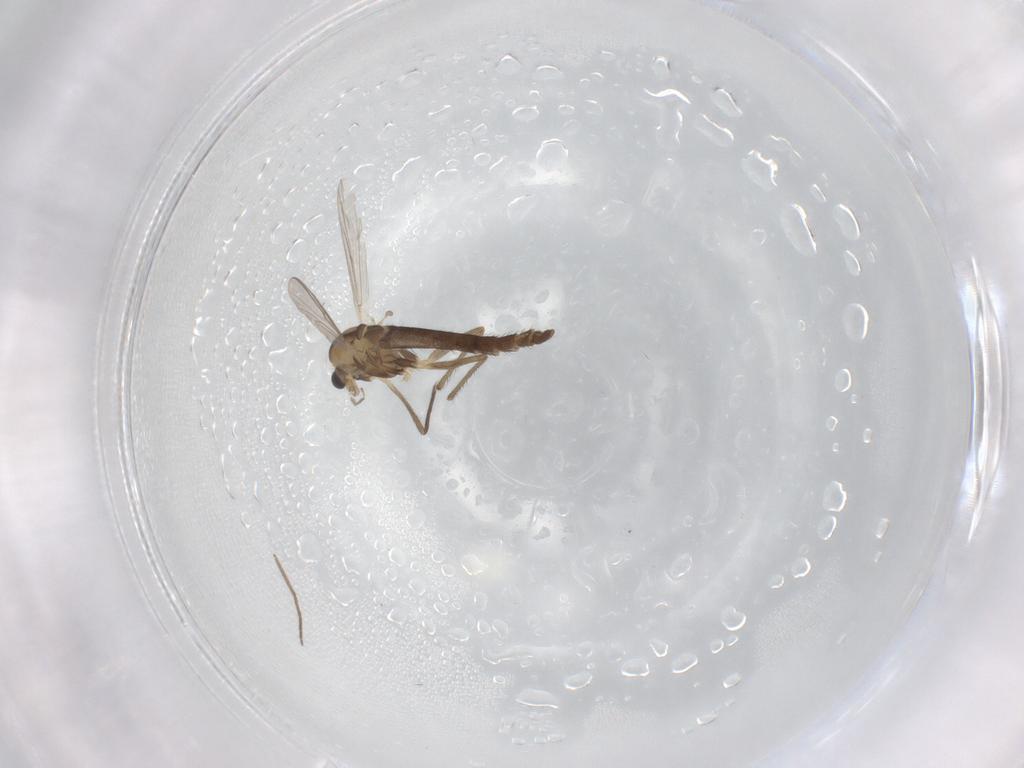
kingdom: Animalia
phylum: Arthropoda
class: Insecta
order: Diptera
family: Chironomidae
